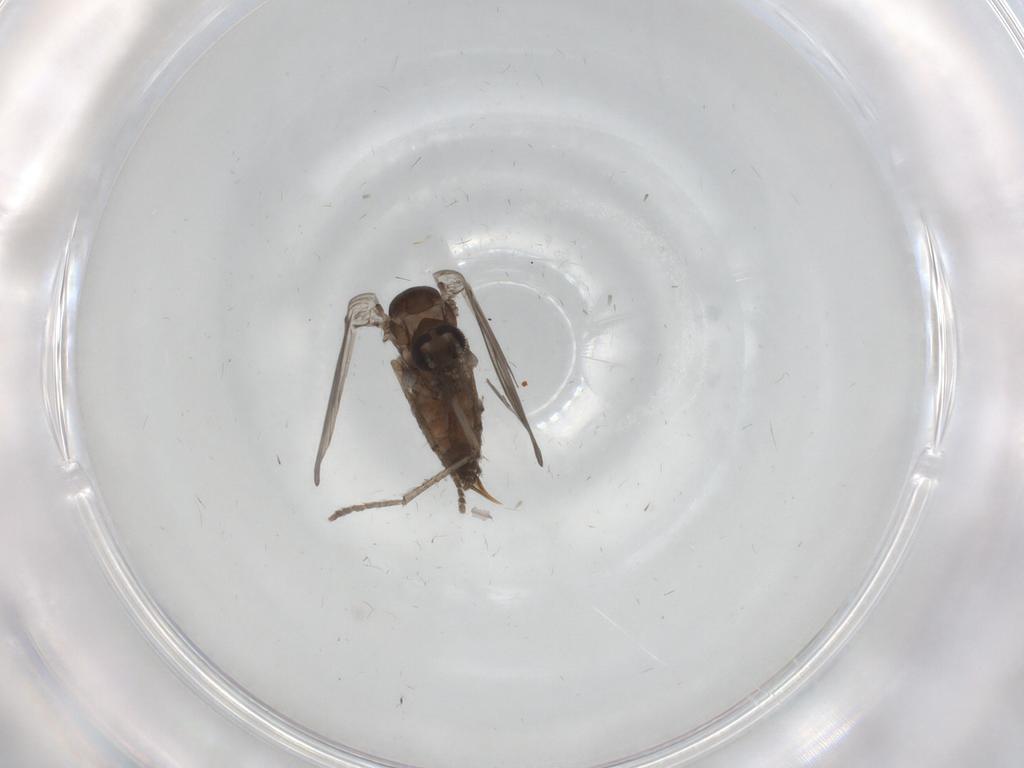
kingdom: Animalia
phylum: Arthropoda
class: Insecta
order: Diptera
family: Psychodidae
